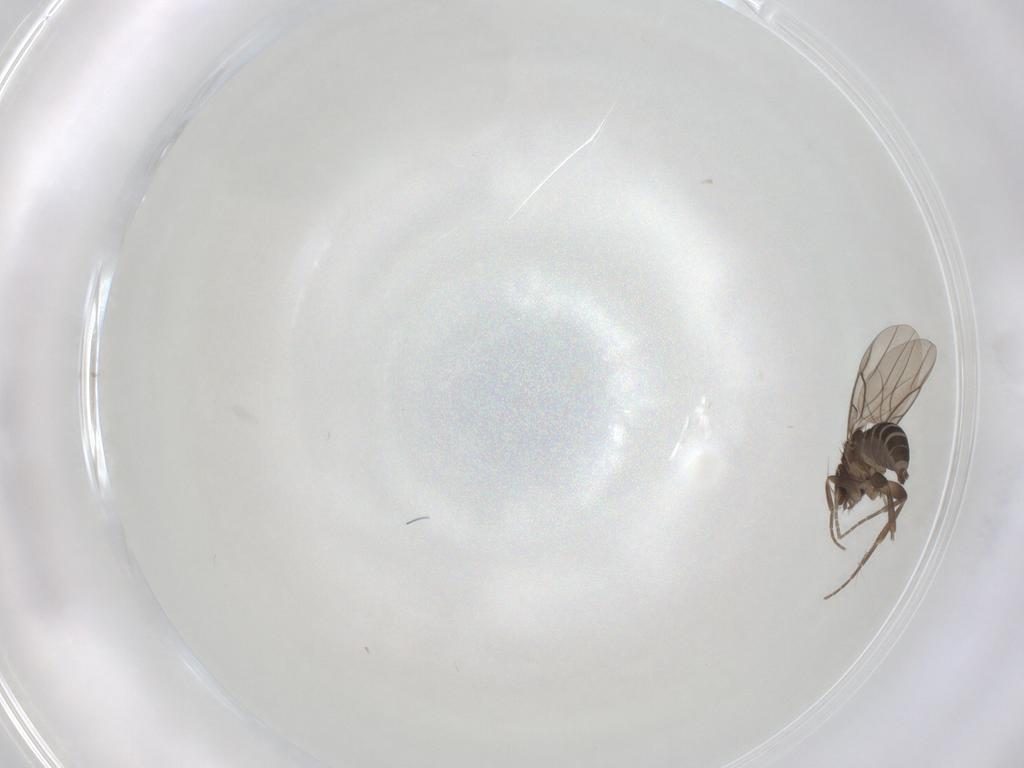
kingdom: Animalia
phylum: Arthropoda
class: Insecta
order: Diptera
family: Phoridae
